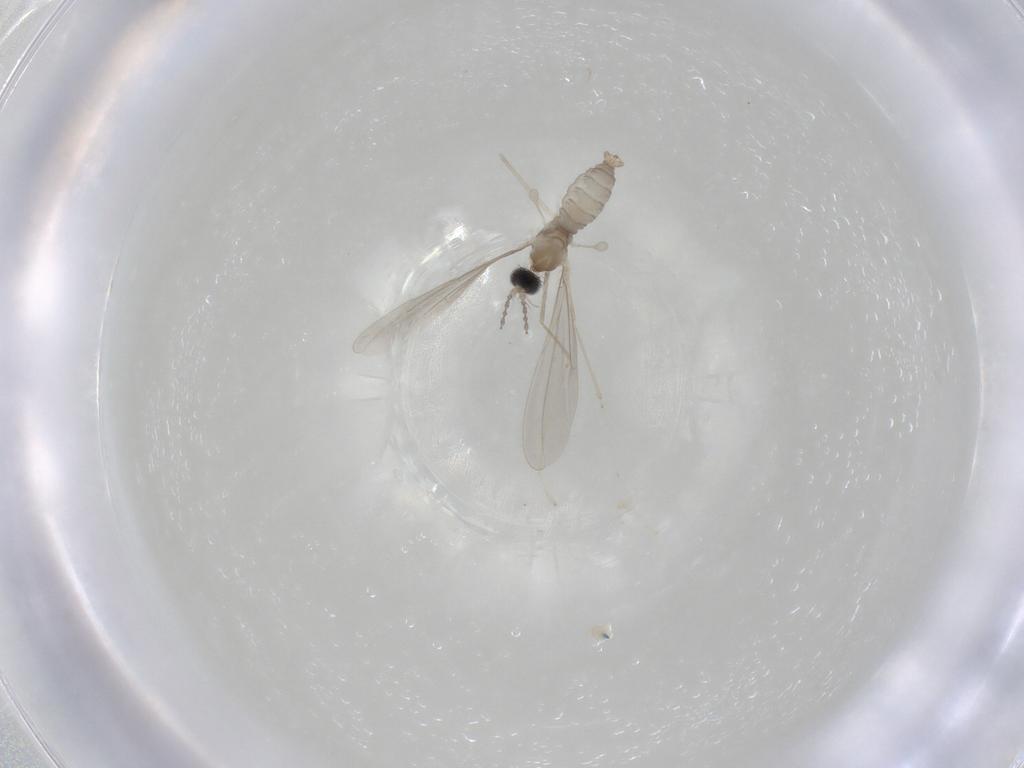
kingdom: Animalia
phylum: Arthropoda
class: Insecta
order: Diptera
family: Cecidomyiidae
